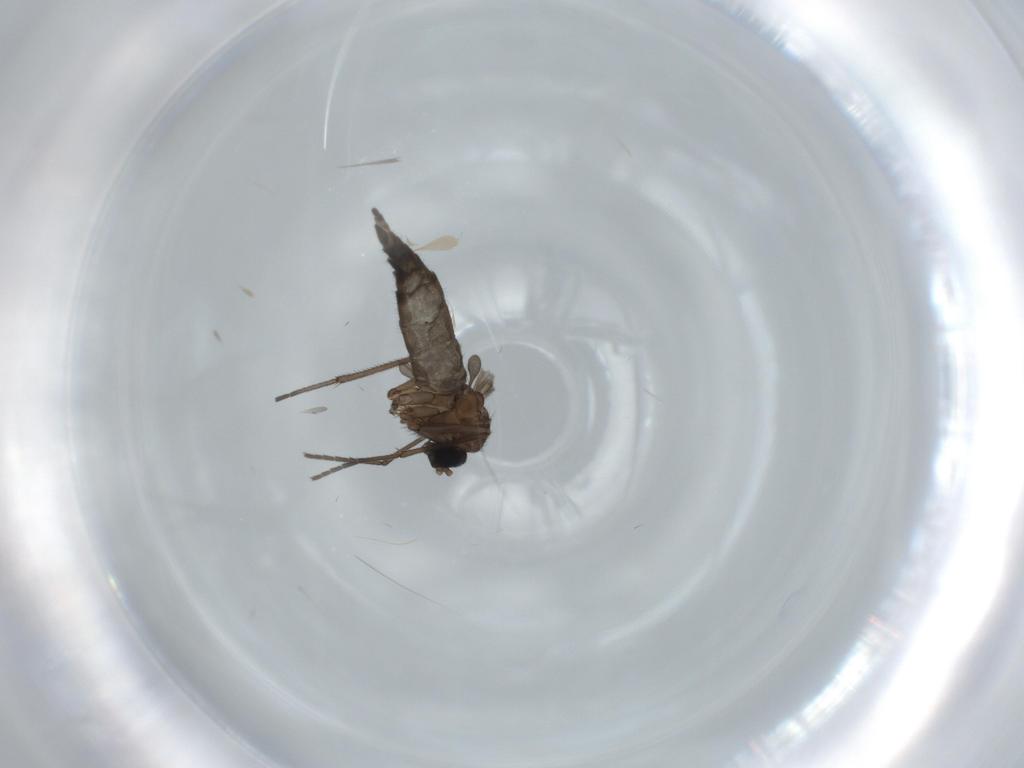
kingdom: Animalia
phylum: Arthropoda
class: Insecta
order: Diptera
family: Sciaridae
